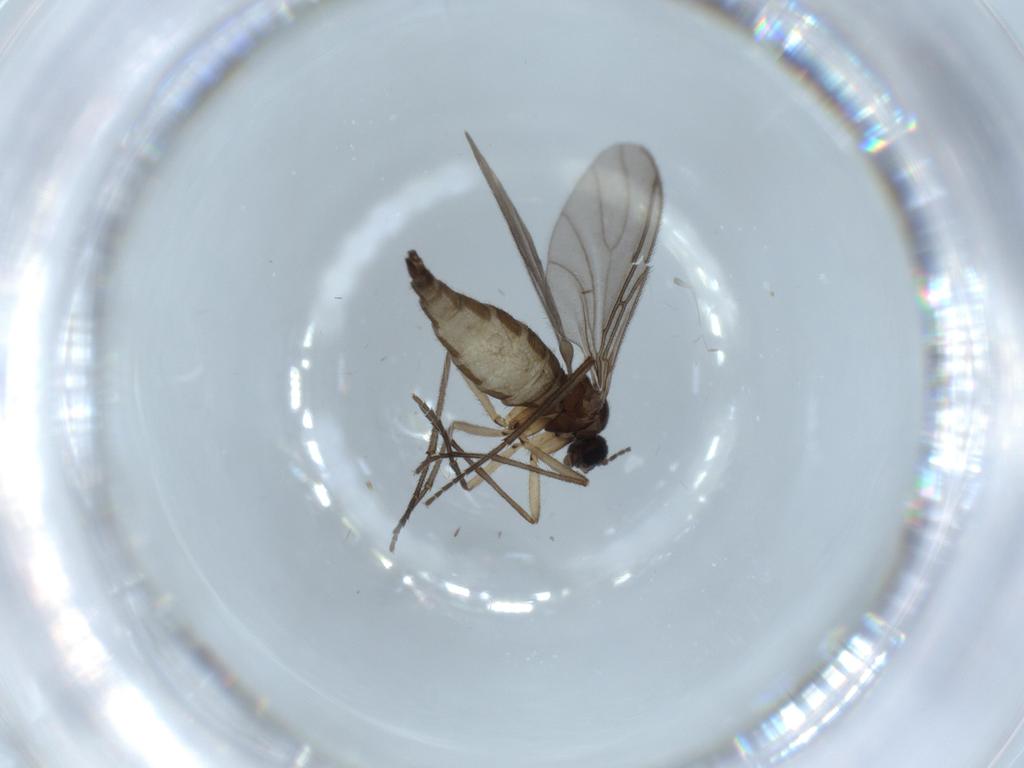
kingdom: Animalia
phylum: Arthropoda
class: Insecta
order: Diptera
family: Sciaridae
